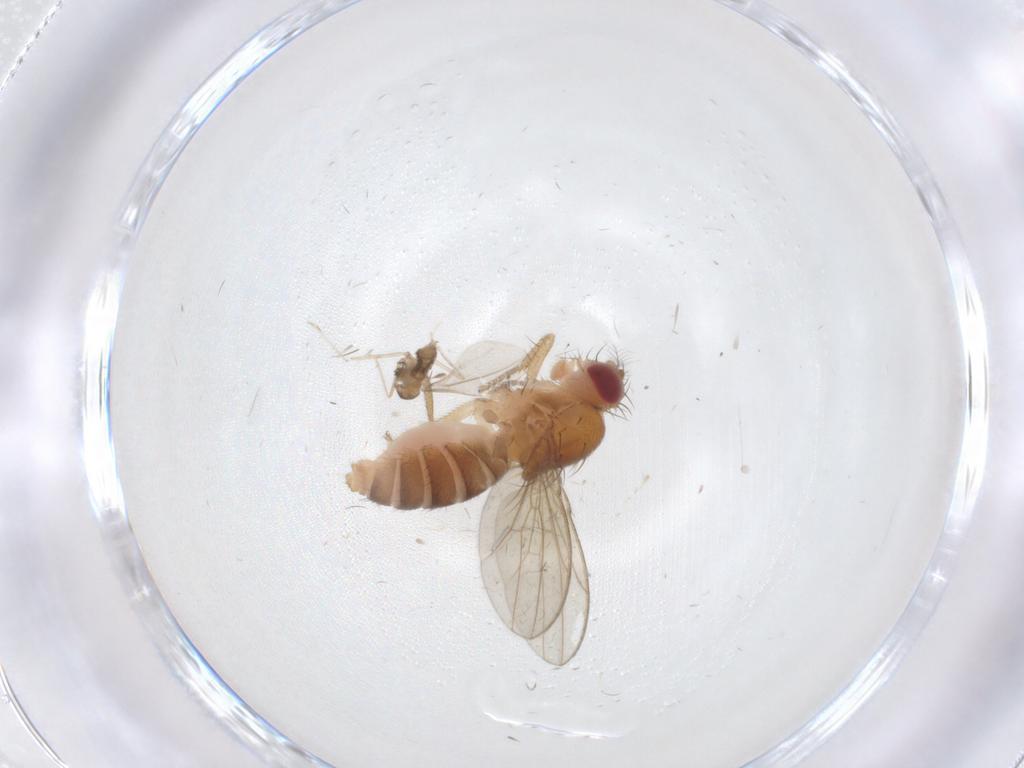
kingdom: Animalia
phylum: Arthropoda
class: Insecta
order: Diptera
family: Drosophilidae
